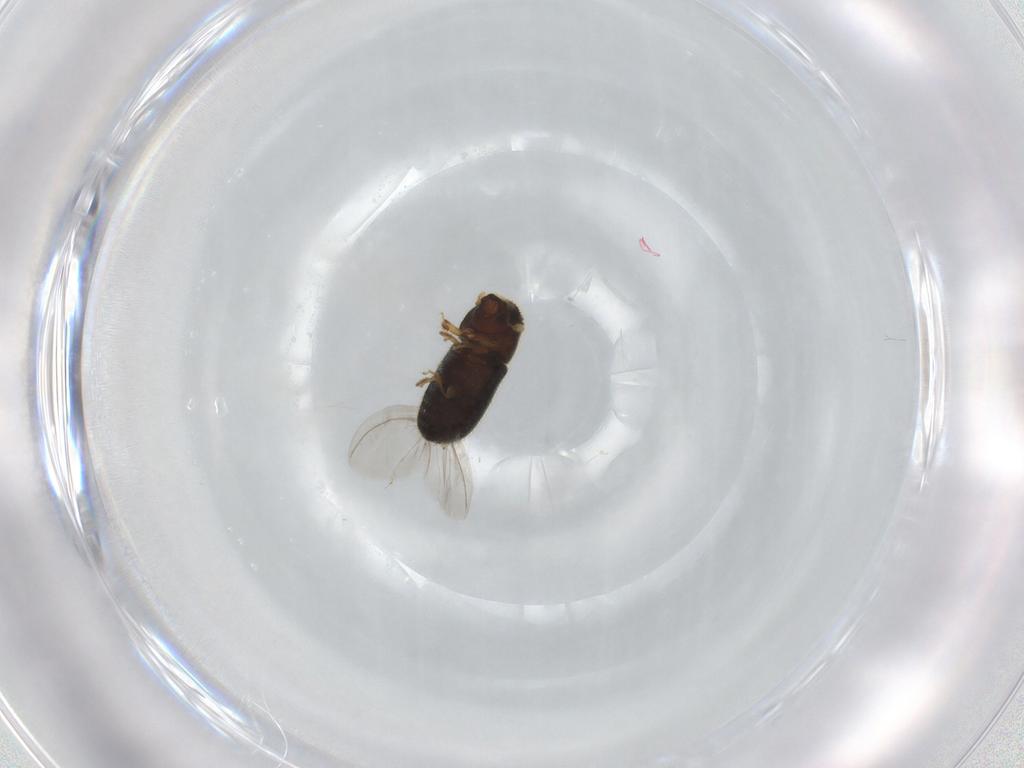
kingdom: Animalia
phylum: Arthropoda
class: Insecta
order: Coleoptera
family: Curculionidae
